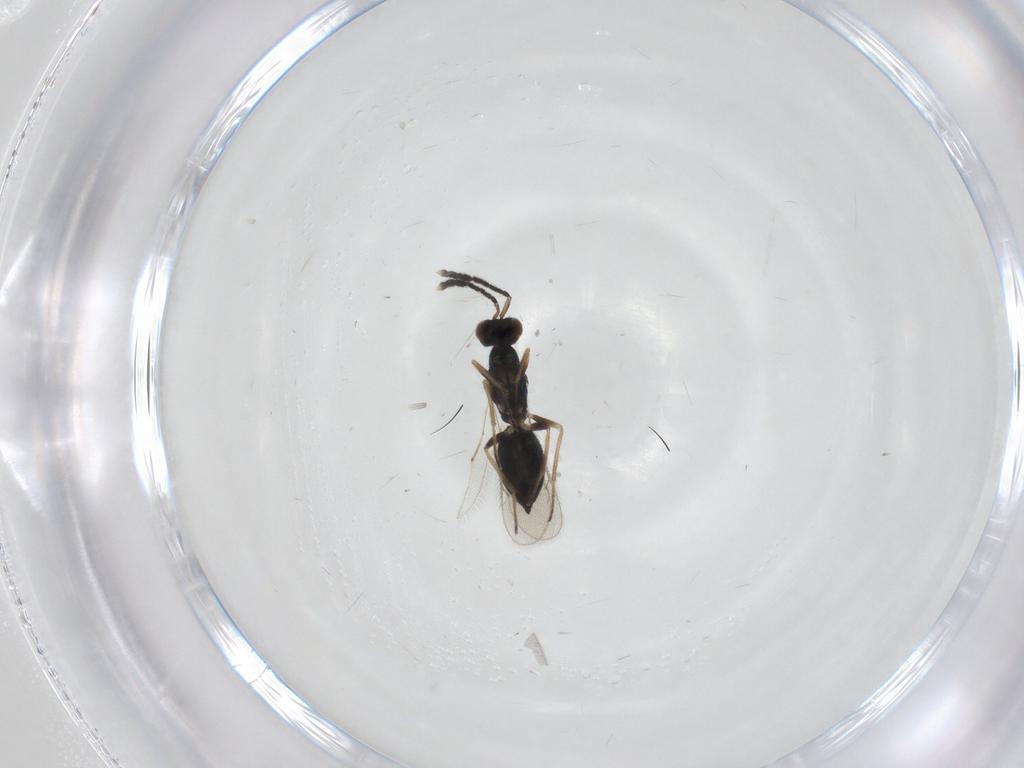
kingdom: Animalia
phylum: Arthropoda
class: Insecta
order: Hymenoptera
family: Eulophidae
